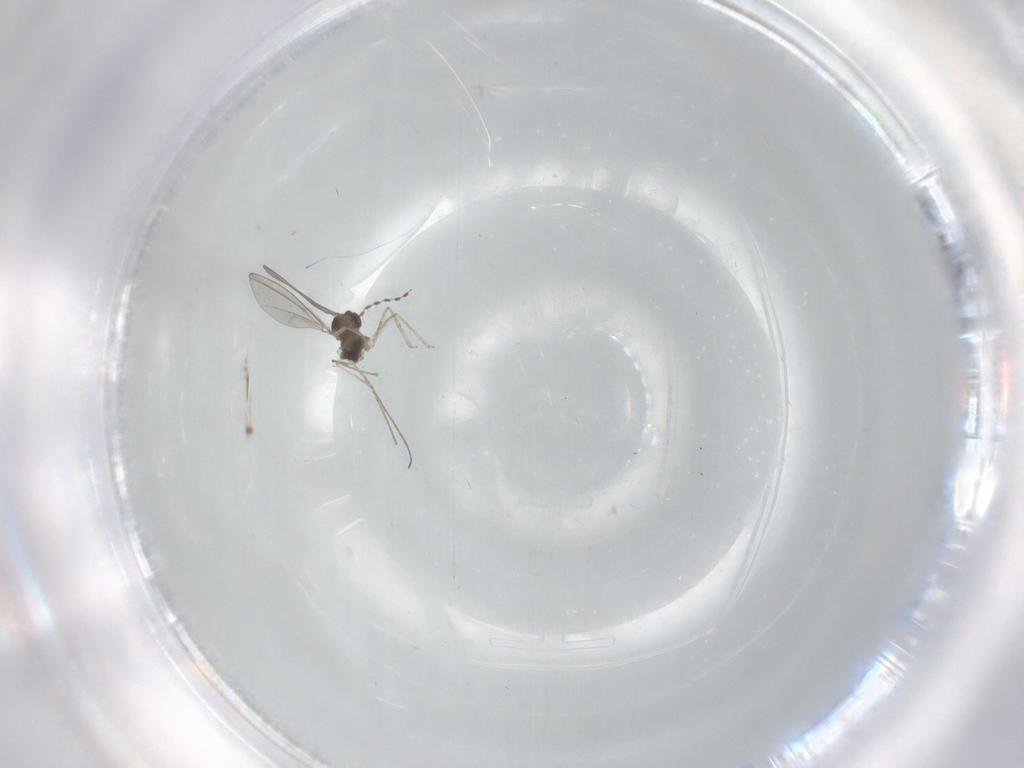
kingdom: Animalia
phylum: Arthropoda
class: Insecta
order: Diptera
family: Cecidomyiidae
